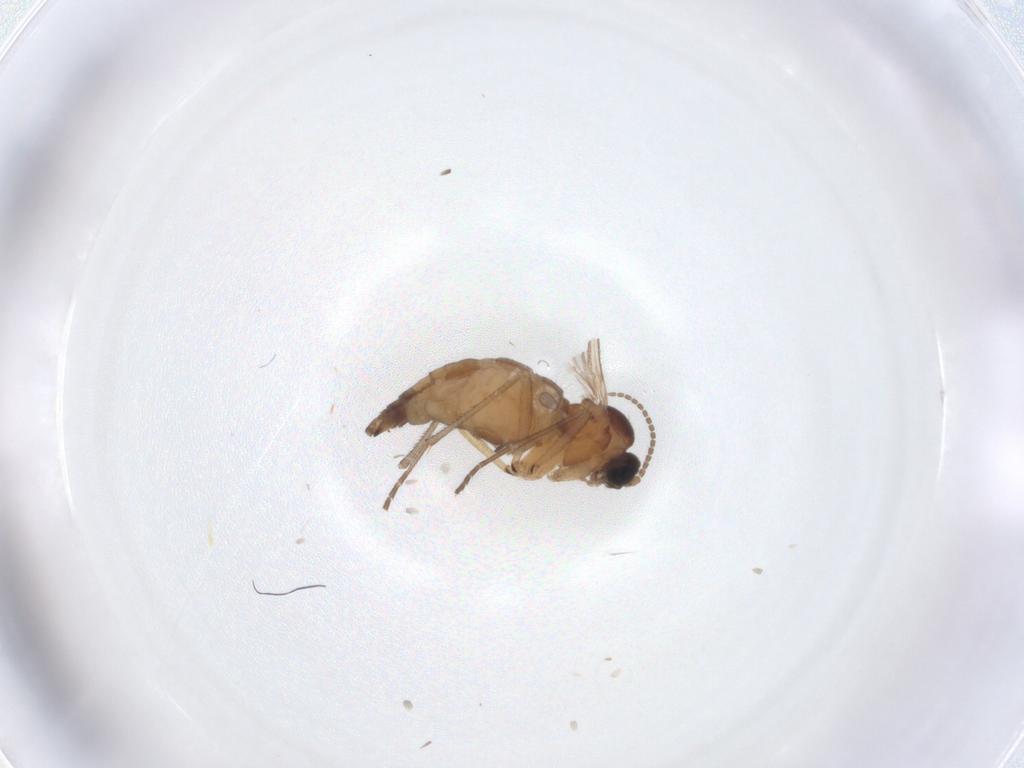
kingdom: Animalia
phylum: Arthropoda
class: Insecta
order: Diptera
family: Sciaridae
